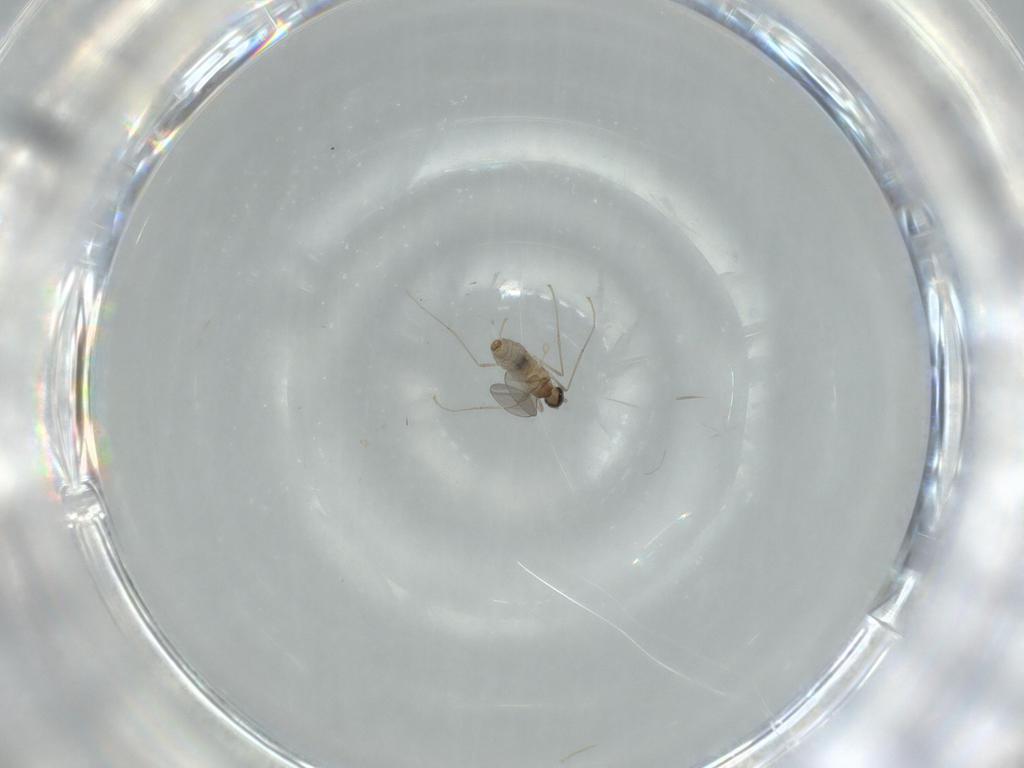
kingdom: Animalia
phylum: Arthropoda
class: Insecta
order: Diptera
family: Cecidomyiidae
